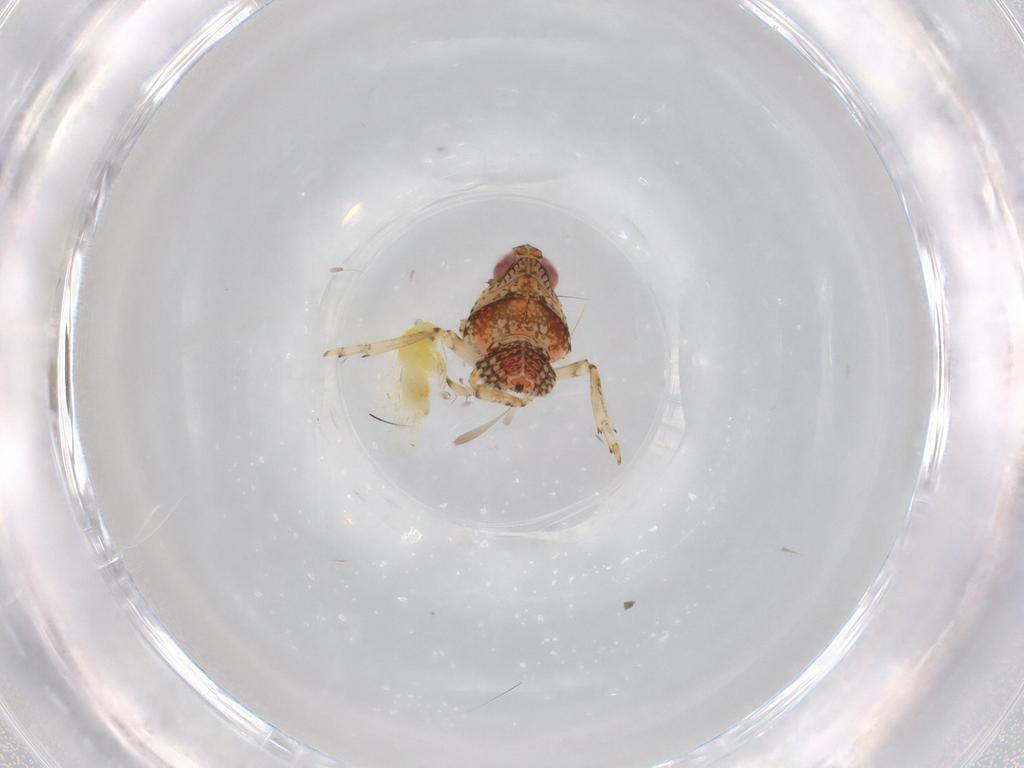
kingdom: Animalia
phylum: Arthropoda
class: Insecta
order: Hemiptera
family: Aleyrodidae
